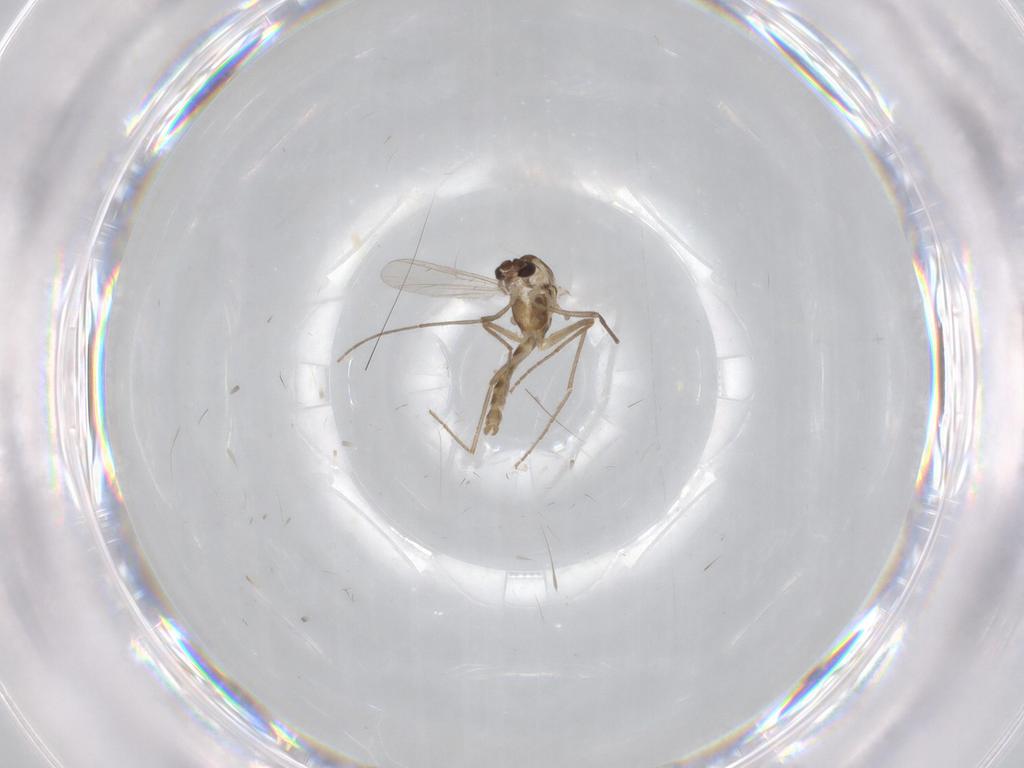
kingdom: Animalia
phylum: Arthropoda
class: Insecta
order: Diptera
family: Chironomidae
